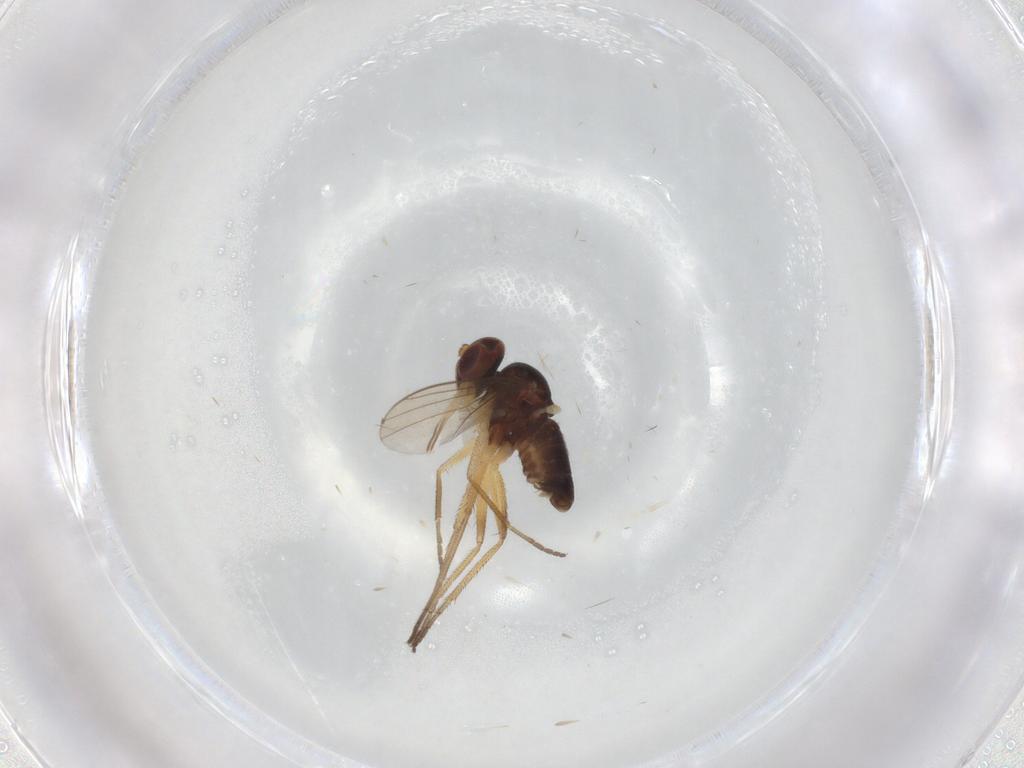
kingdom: Animalia
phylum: Arthropoda
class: Insecta
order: Diptera
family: Chironomidae
